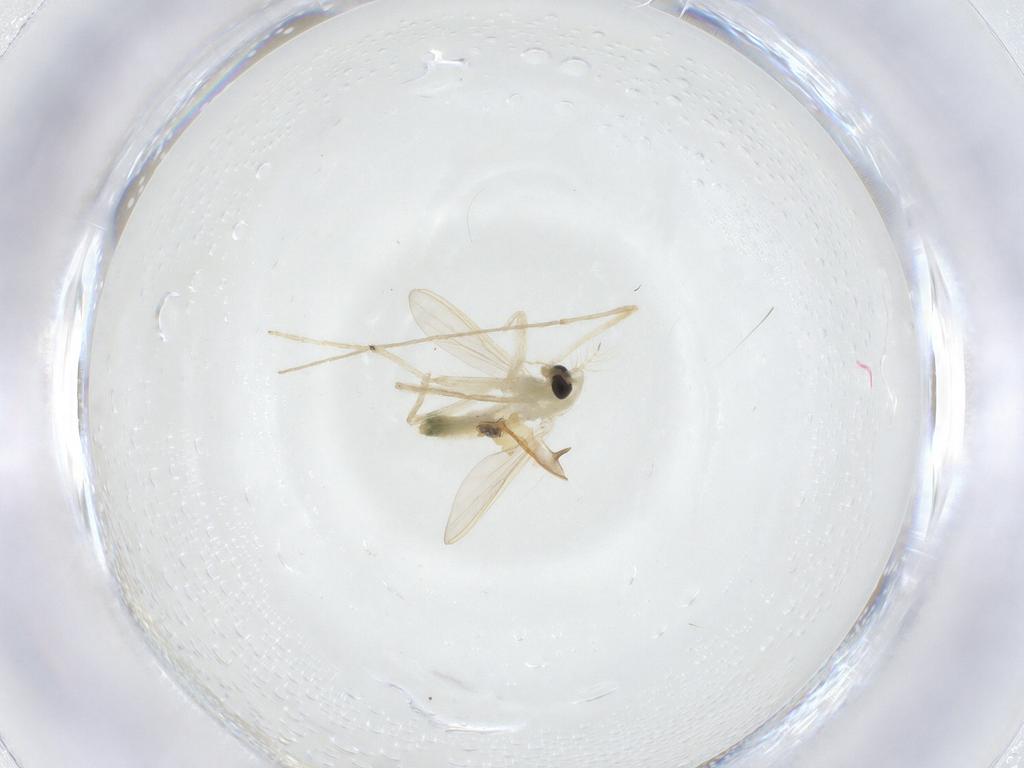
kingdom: Animalia
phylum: Arthropoda
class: Insecta
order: Diptera
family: Chironomidae
